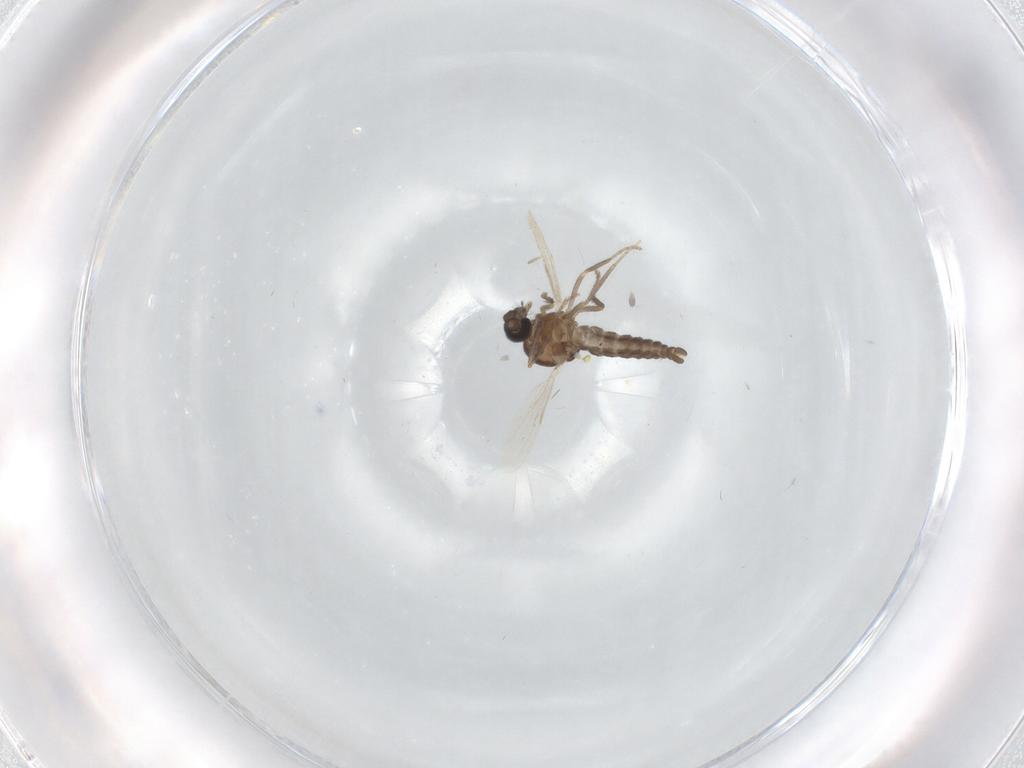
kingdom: Animalia
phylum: Arthropoda
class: Insecta
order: Diptera
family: Ceratopogonidae
